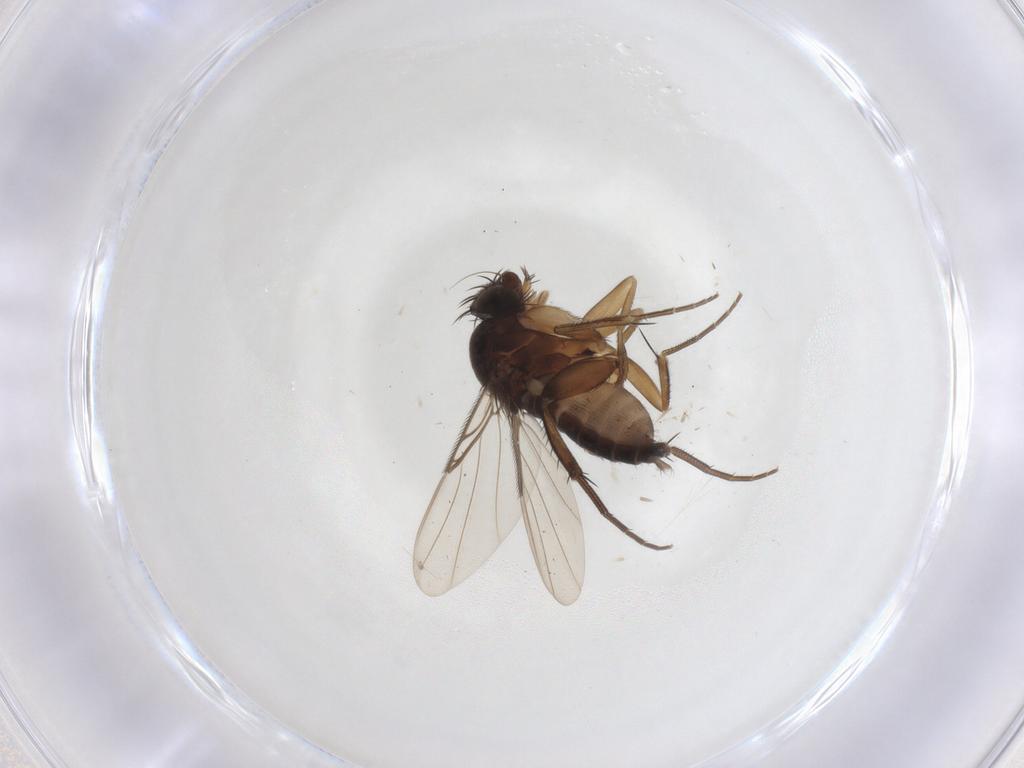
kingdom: Animalia
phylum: Arthropoda
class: Insecta
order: Diptera
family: Phoridae
